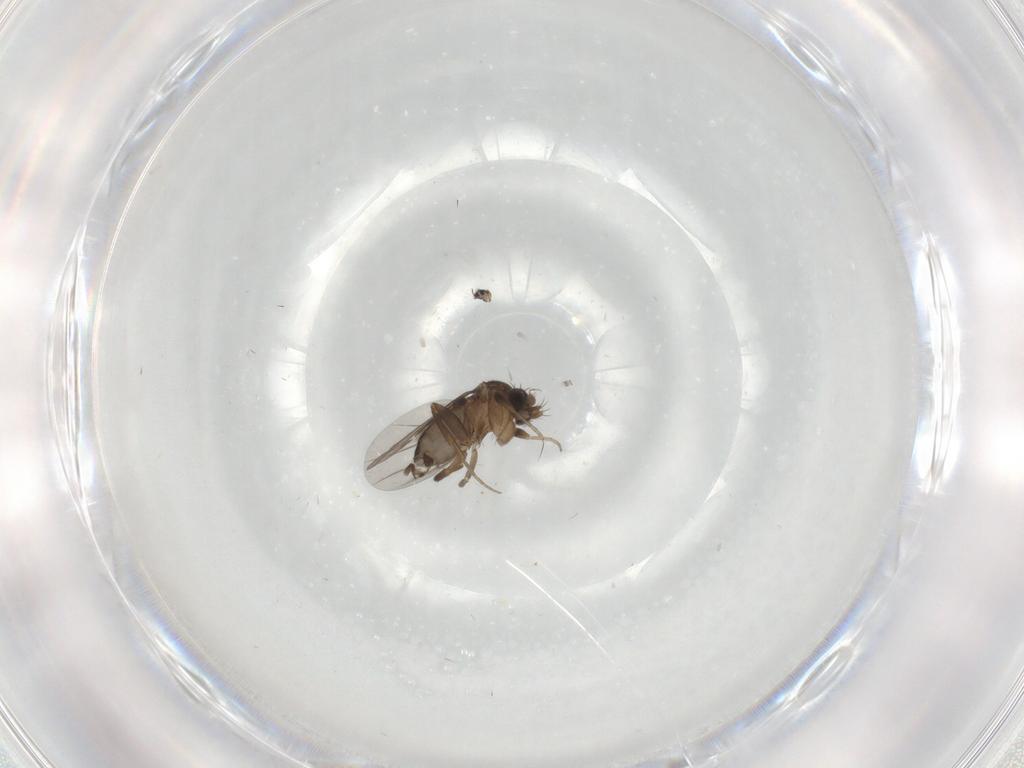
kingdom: Animalia
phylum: Arthropoda
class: Insecta
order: Diptera
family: Phoridae
